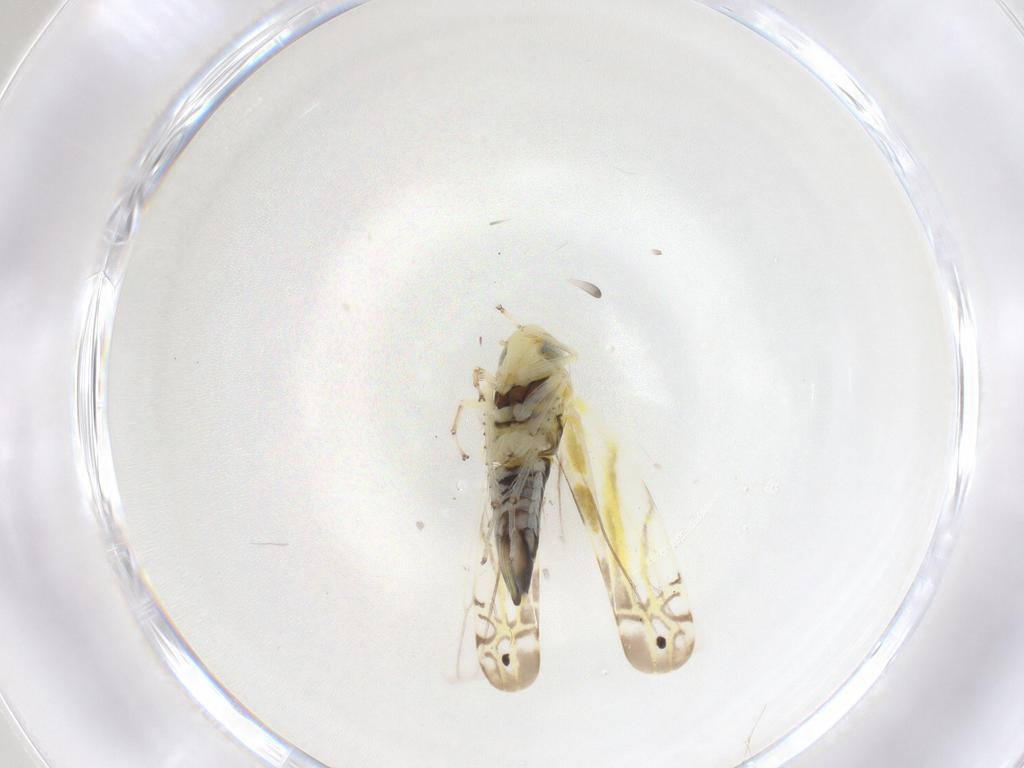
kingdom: Animalia
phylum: Arthropoda
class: Insecta
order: Hemiptera
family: Cicadellidae
